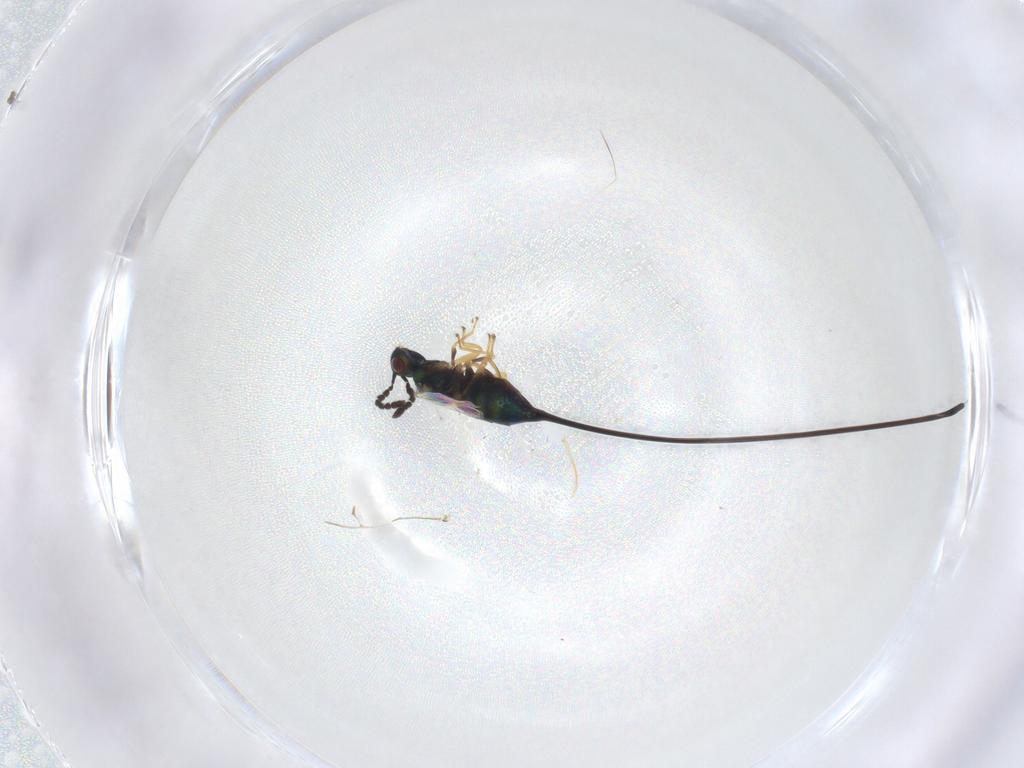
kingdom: Animalia
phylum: Arthropoda
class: Insecta
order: Hymenoptera
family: Pteromalidae
